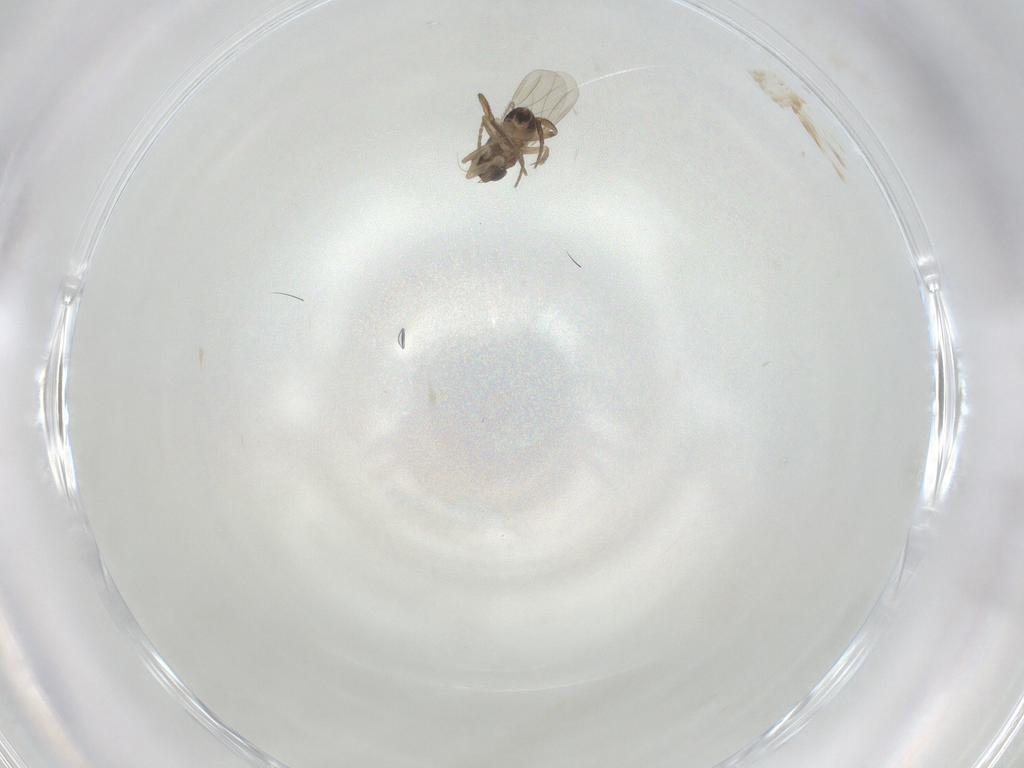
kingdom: Animalia
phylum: Arthropoda
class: Insecta
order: Diptera
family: Phoridae
